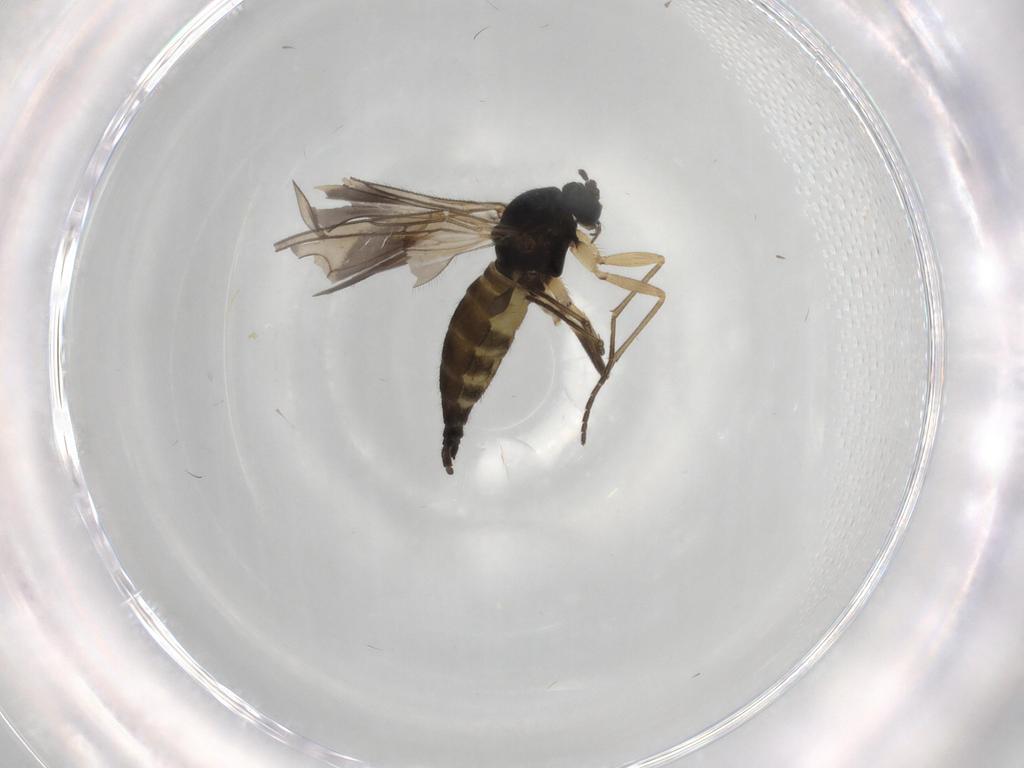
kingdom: Animalia
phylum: Arthropoda
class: Insecta
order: Diptera
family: Sciaridae
